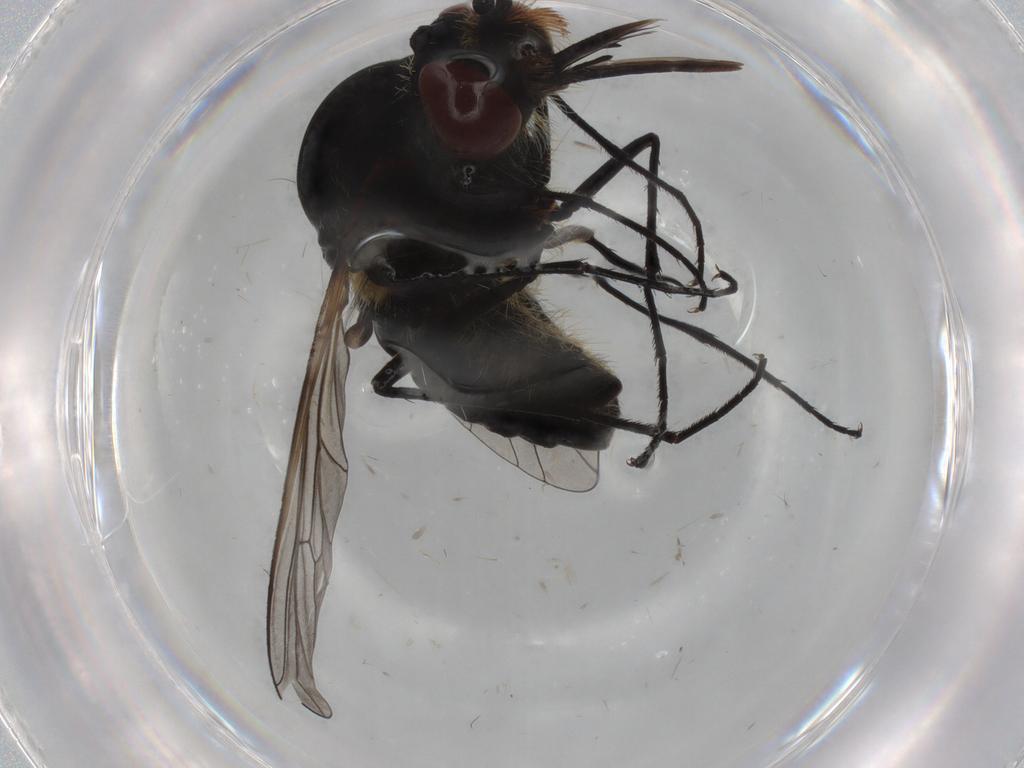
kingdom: Animalia
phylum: Arthropoda
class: Insecta
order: Diptera
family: Bombyliidae
